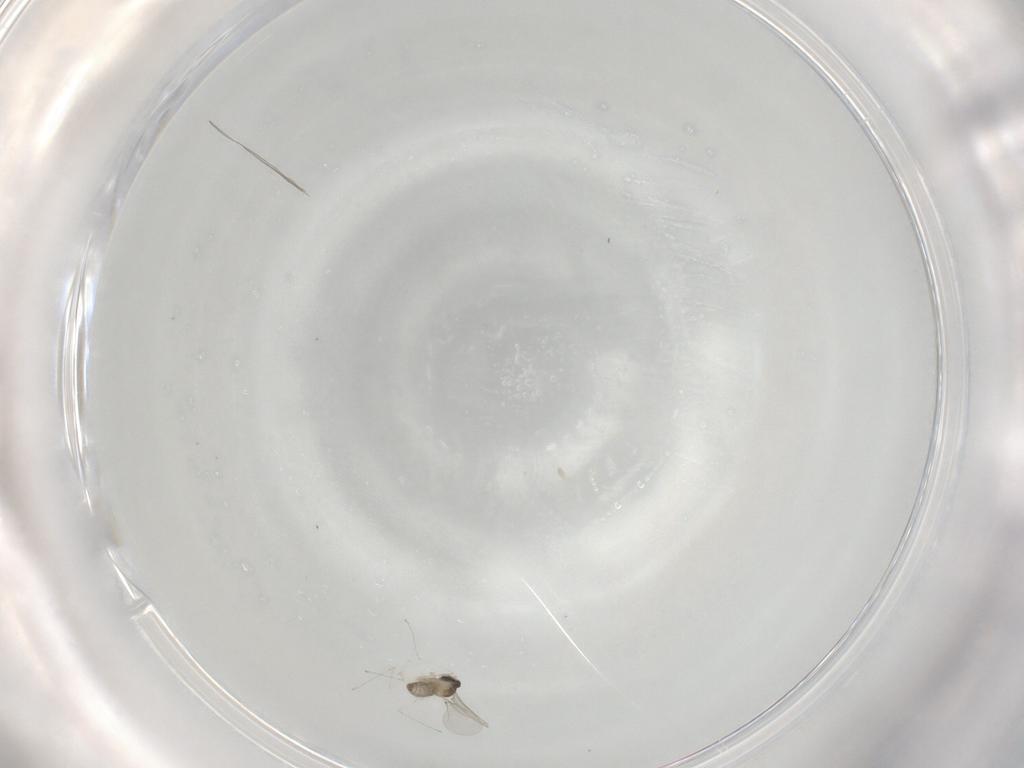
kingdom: Animalia
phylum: Arthropoda
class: Insecta
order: Diptera
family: Cecidomyiidae
